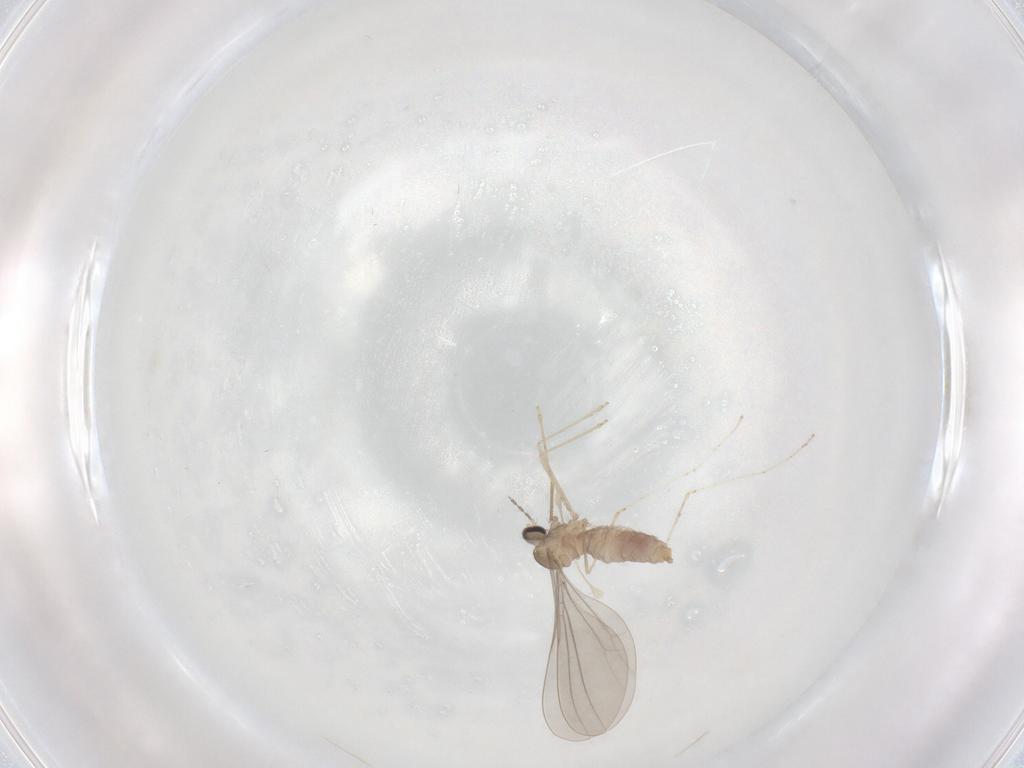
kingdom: Animalia
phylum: Arthropoda
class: Insecta
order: Diptera
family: Cecidomyiidae
